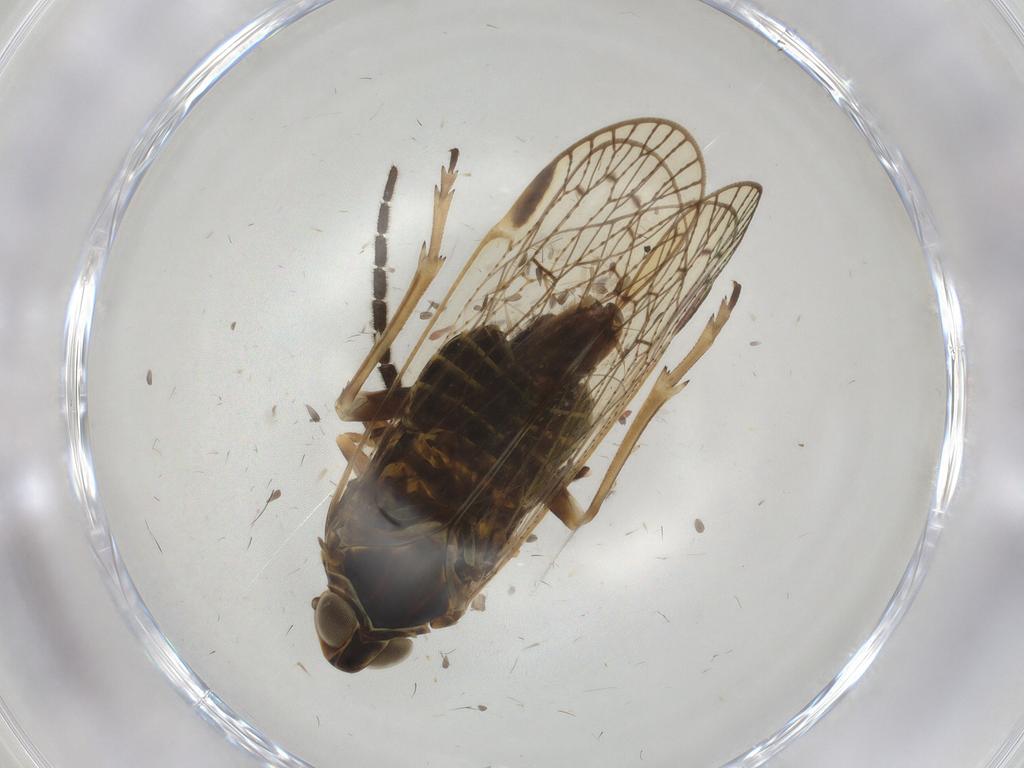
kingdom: Animalia
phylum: Arthropoda
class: Insecta
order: Hemiptera
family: Cixiidae
